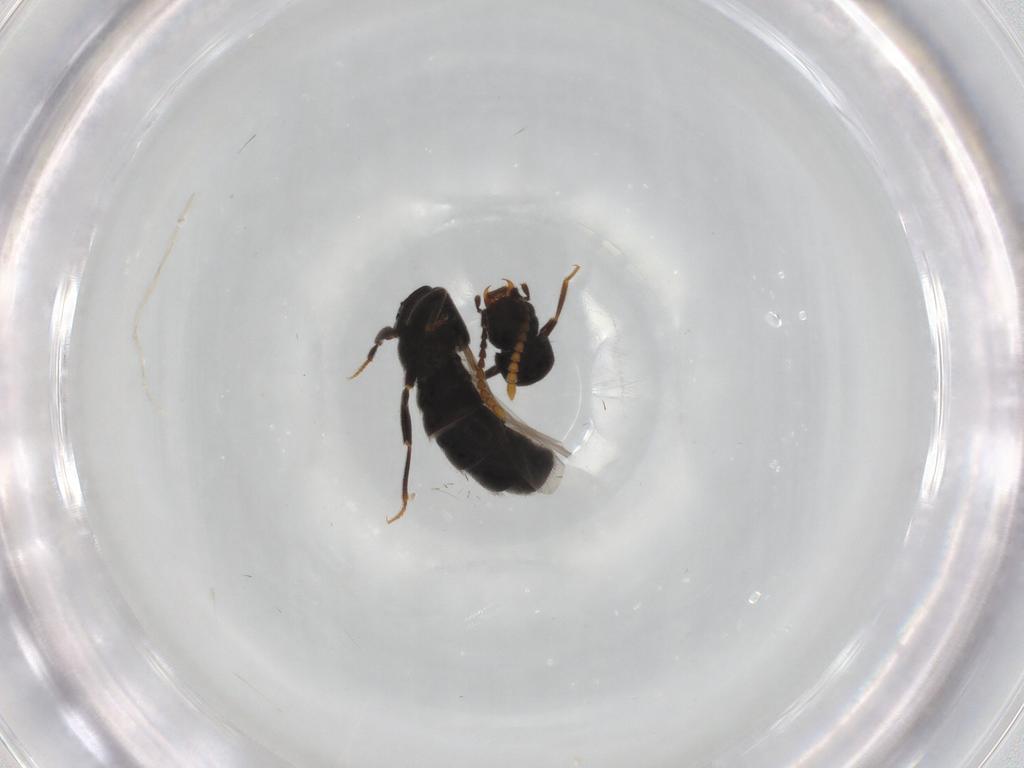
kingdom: Animalia
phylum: Arthropoda
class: Insecta
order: Coleoptera
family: Staphylinidae
